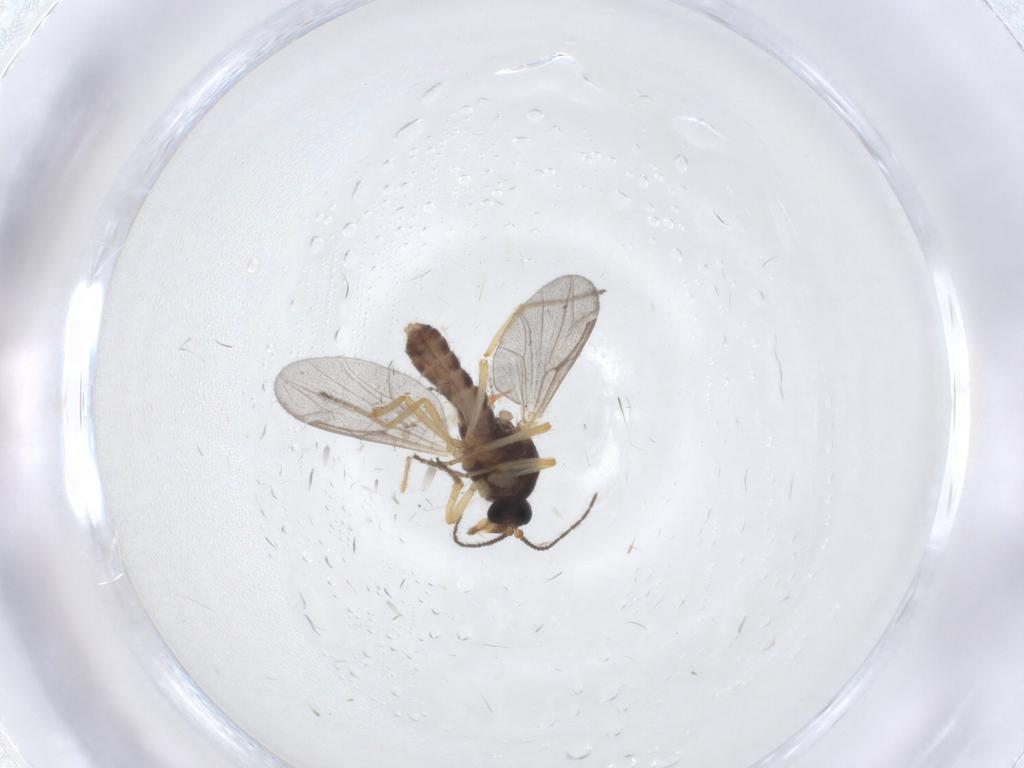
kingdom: Animalia
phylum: Arthropoda
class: Insecta
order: Diptera
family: Ceratopogonidae
